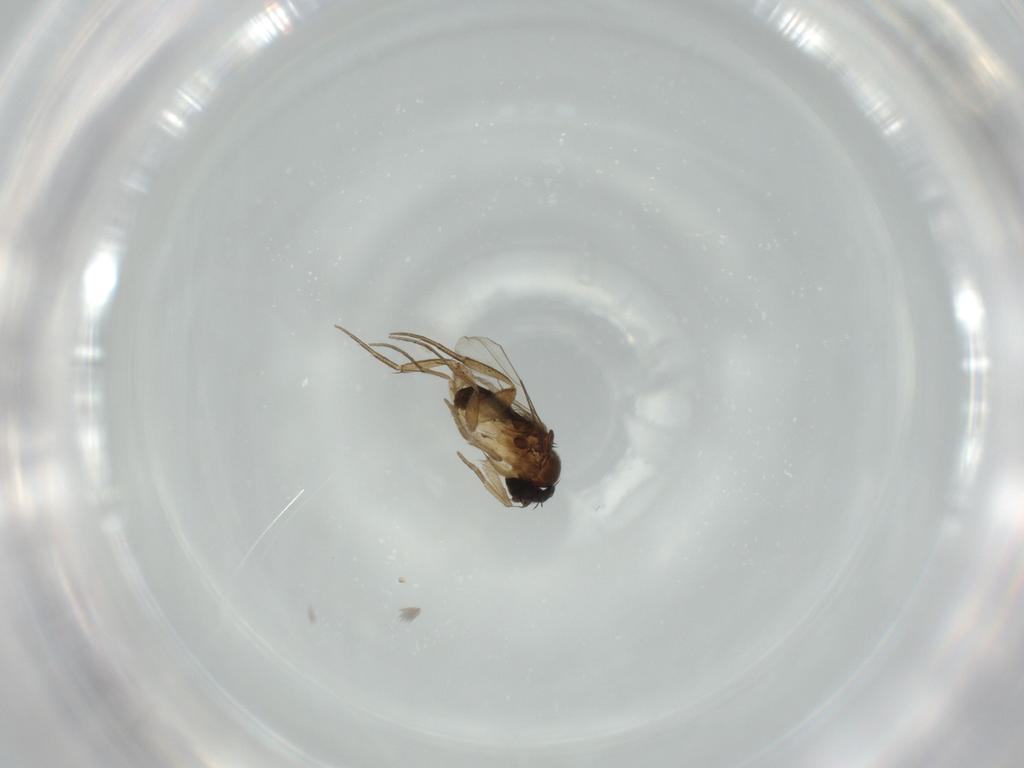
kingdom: Animalia
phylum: Arthropoda
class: Insecta
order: Diptera
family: Phoridae
